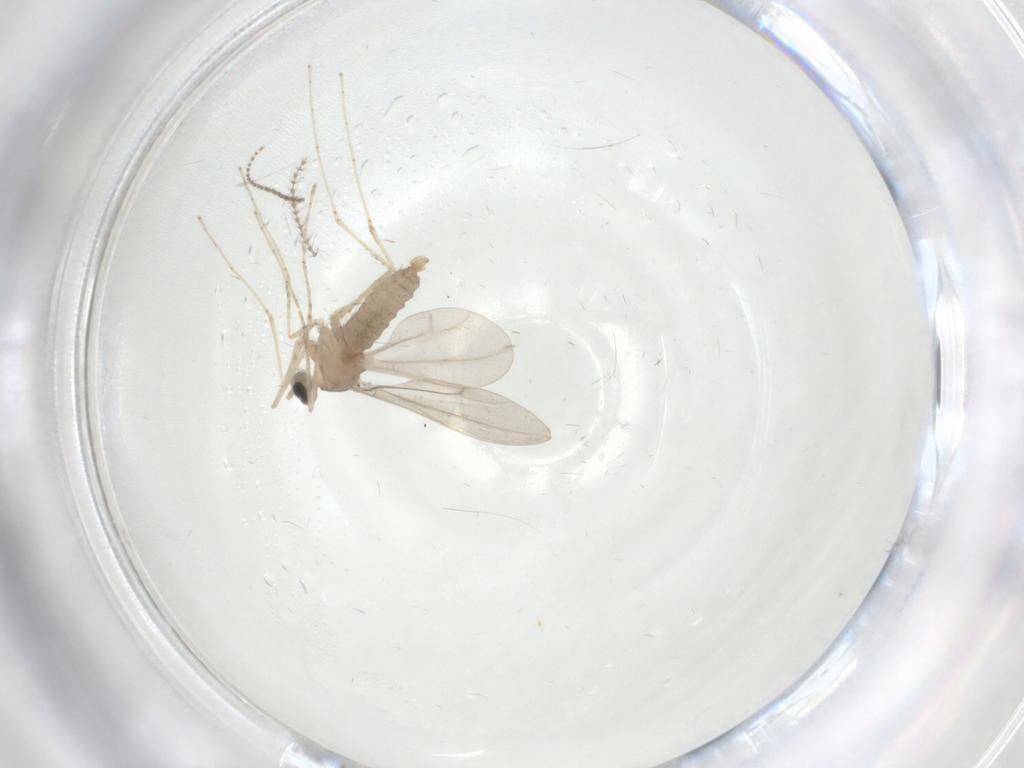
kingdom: Animalia
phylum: Arthropoda
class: Insecta
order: Diptera
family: Cecidomyiidae
